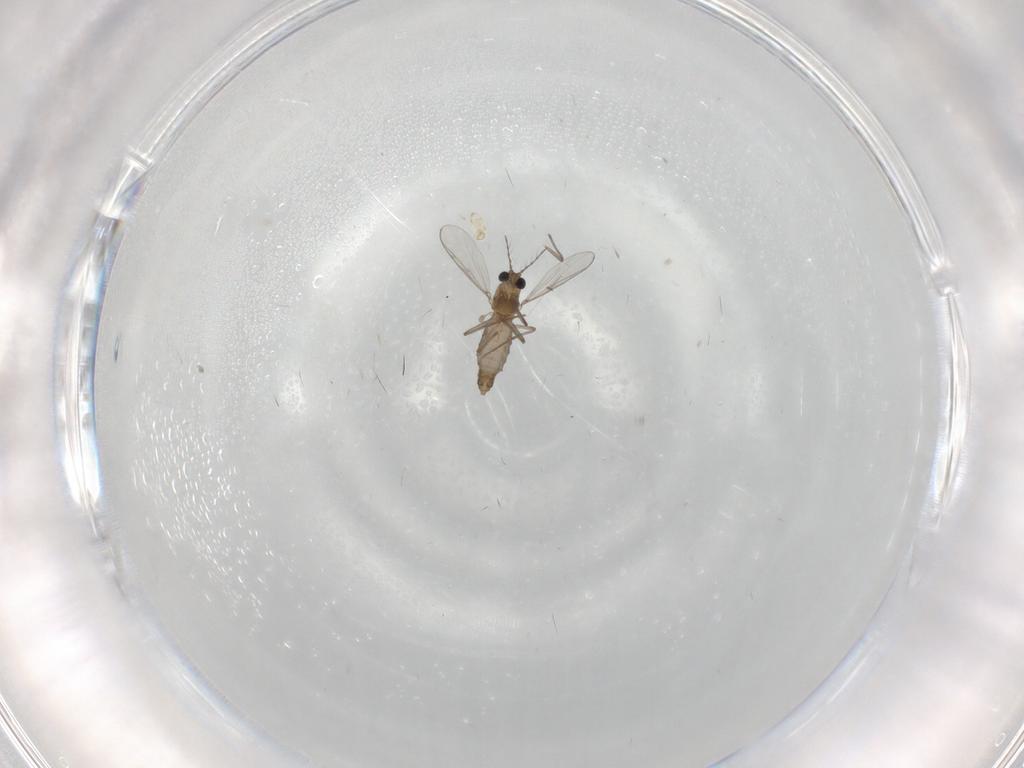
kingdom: Animalia
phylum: Arthropoda
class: Insecta
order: Diptera
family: Chironomidae
